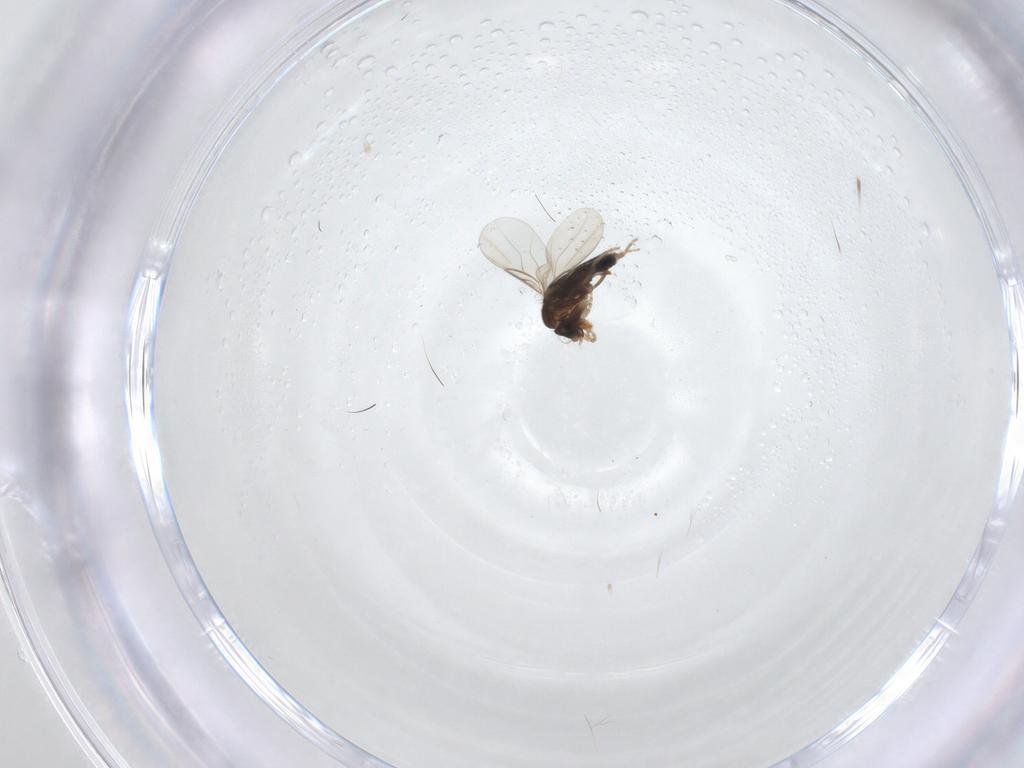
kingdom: Animalia
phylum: Arthropoda
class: Insecta
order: Diptera
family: Phoridae
